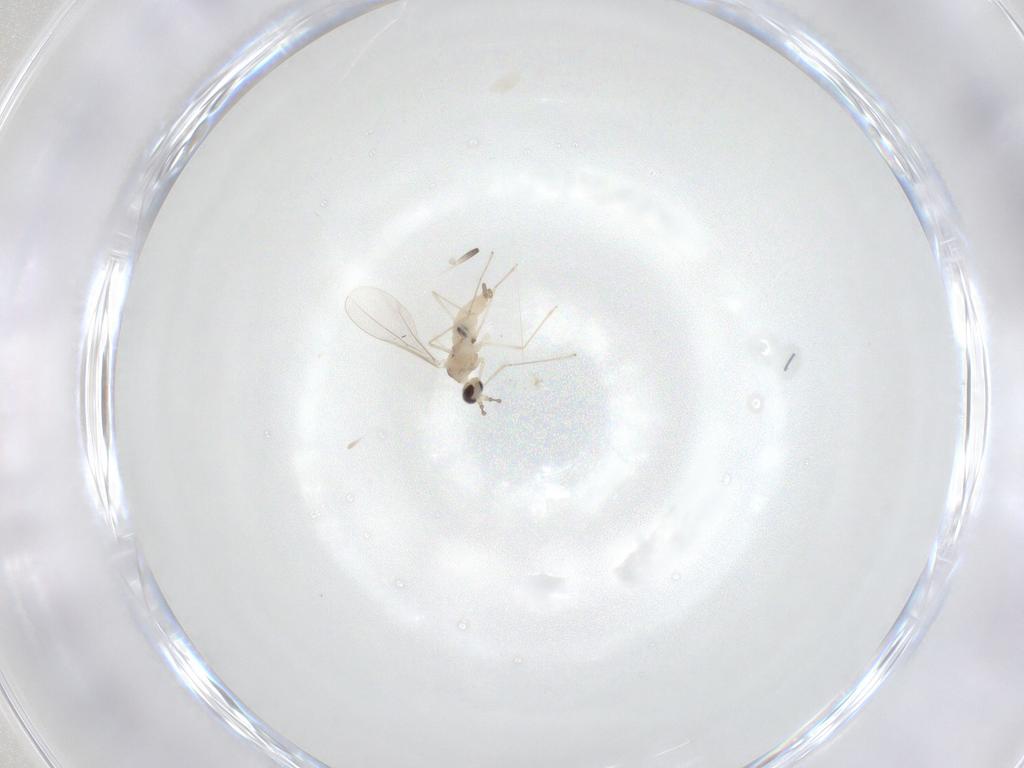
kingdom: Animalia
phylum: Arthropoda
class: Insecta
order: Diptera
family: Cecidomyiidae
